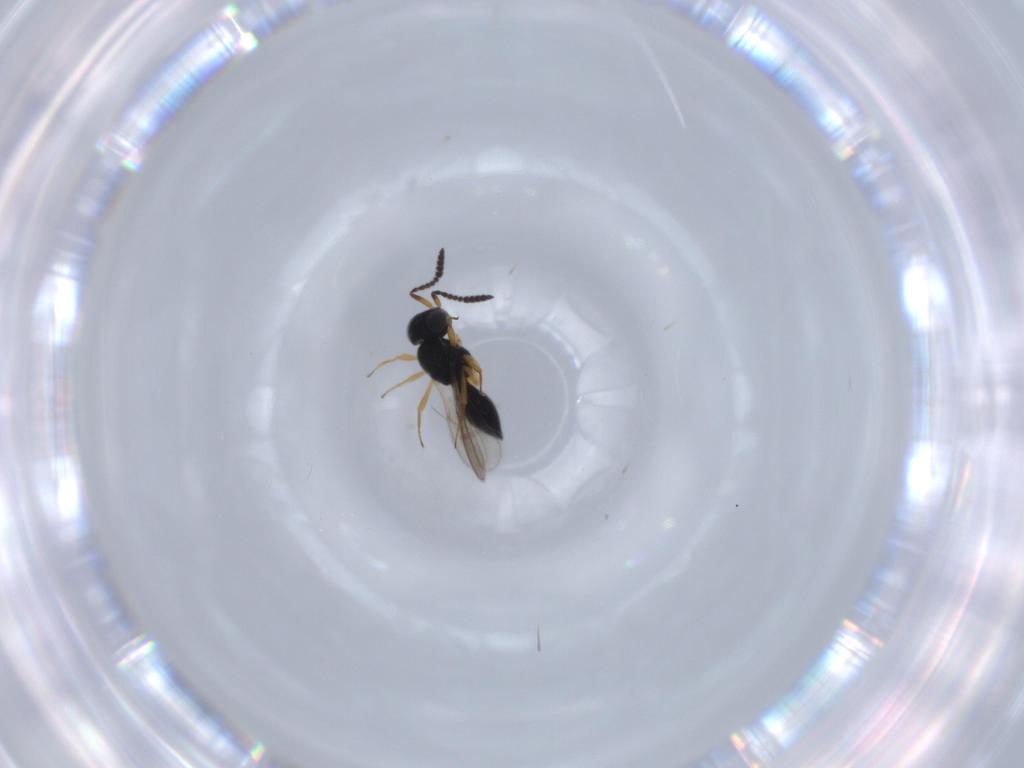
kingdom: Animalia
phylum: Arthropoda
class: Insecta
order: Hymenoptera
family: Scelionidae
